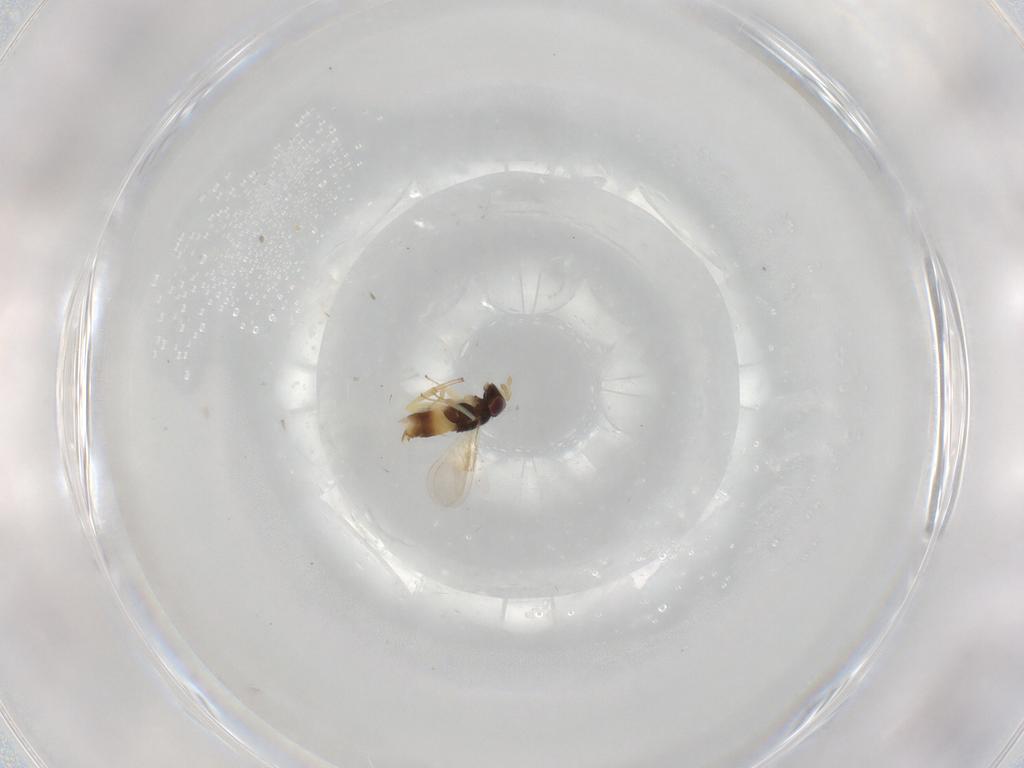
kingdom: Animalia
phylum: Arthropoda
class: Insecta
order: Hymenoptera
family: Aphelinidae
